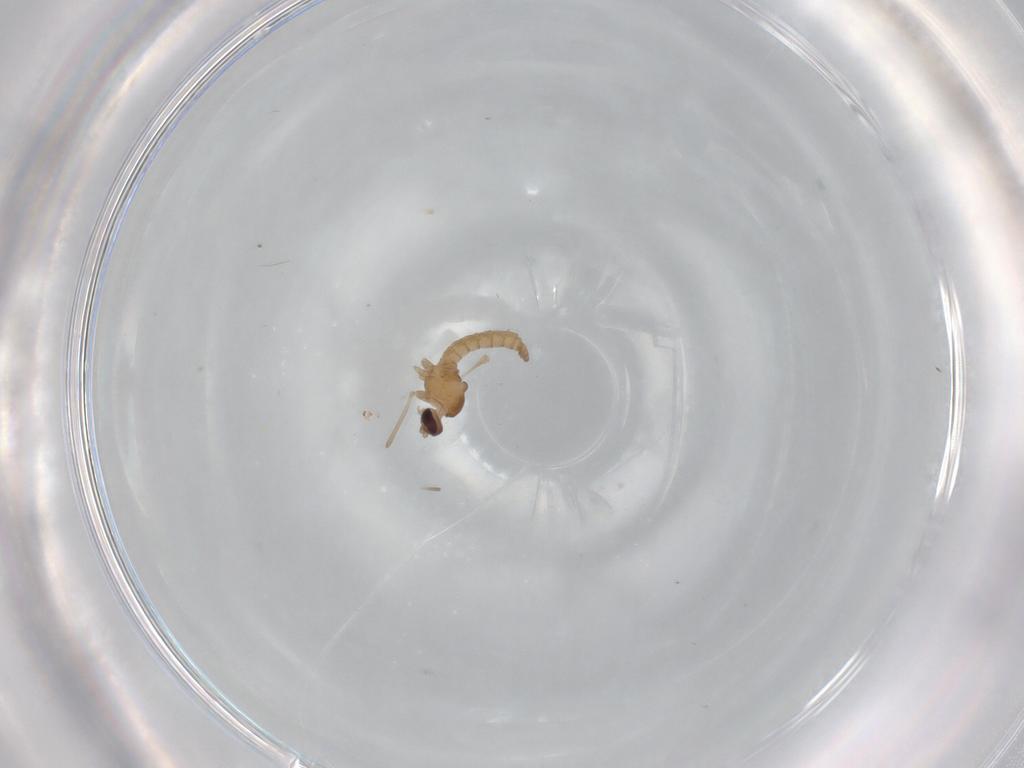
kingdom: Animalia
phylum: Arthropoda
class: Insecta
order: Diptera
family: Cecidomyiidae
